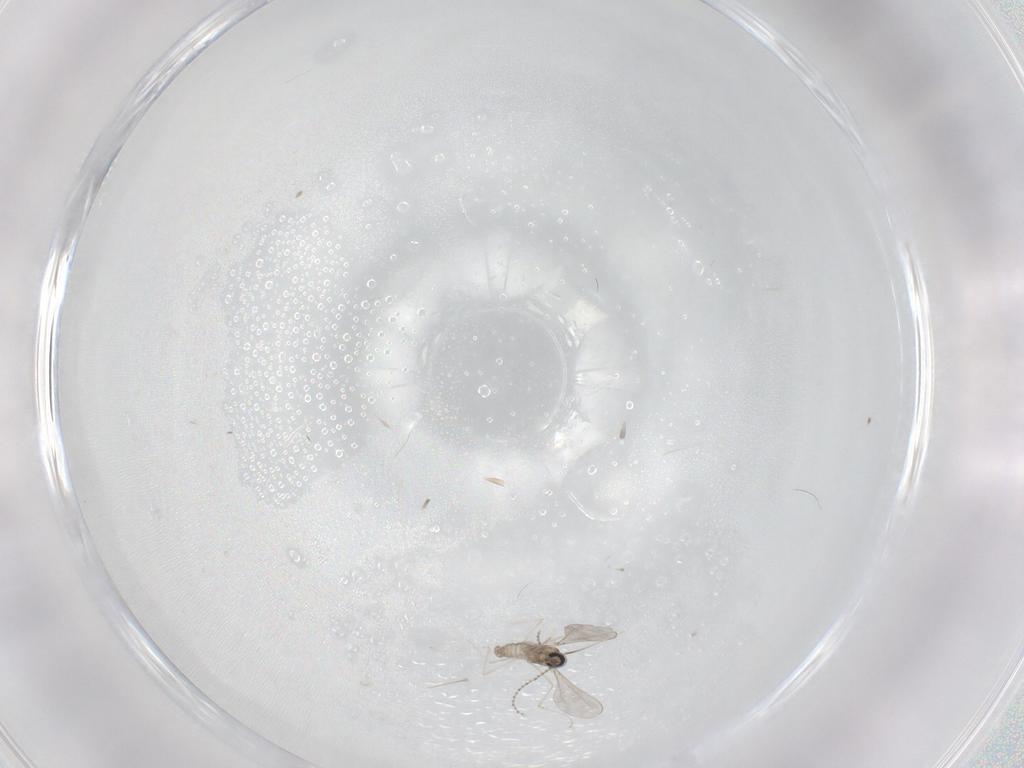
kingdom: Animalia
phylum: Arthropoda
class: Insecta
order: Diptera
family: Cecidomyiidae
